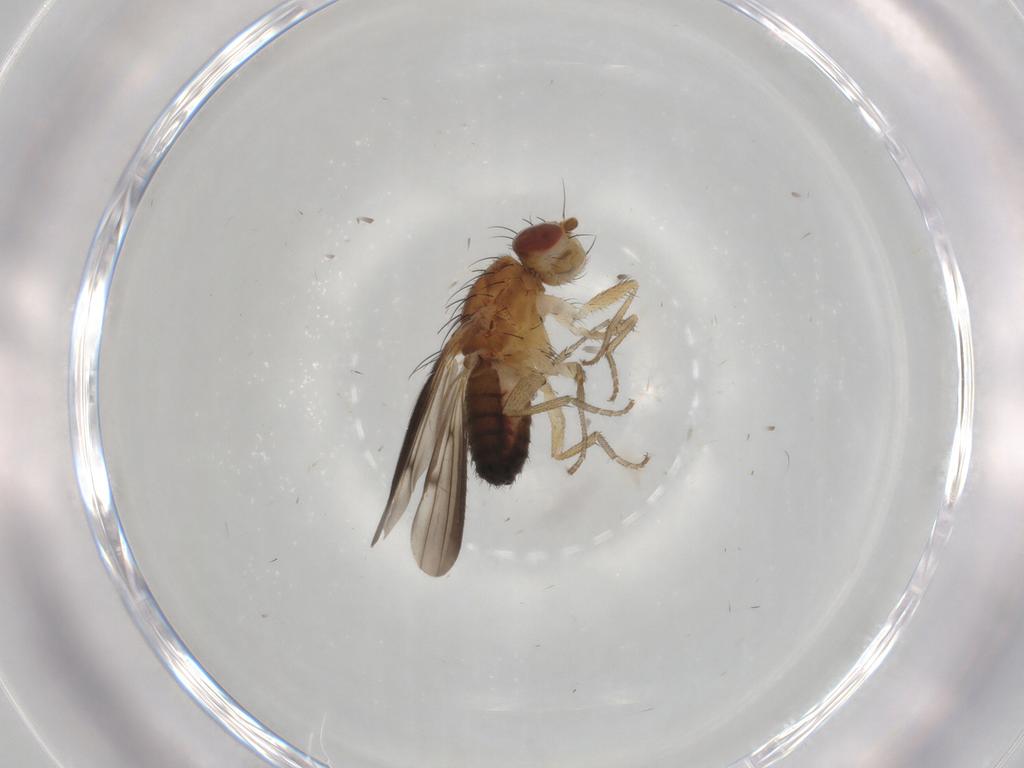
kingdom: Animalia
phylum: Arthropoda
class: Insecta
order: Diptera
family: Heleomyzidae
